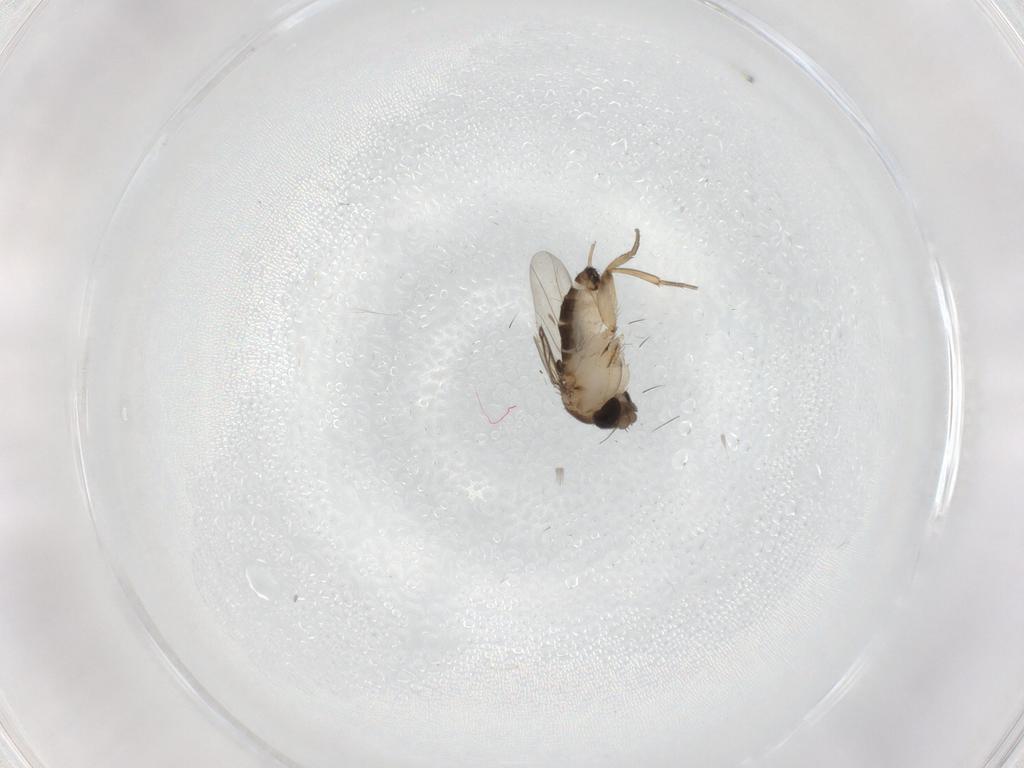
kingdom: Animalia
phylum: Arthropoda
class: Insecta
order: Diptera
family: Phoridae
